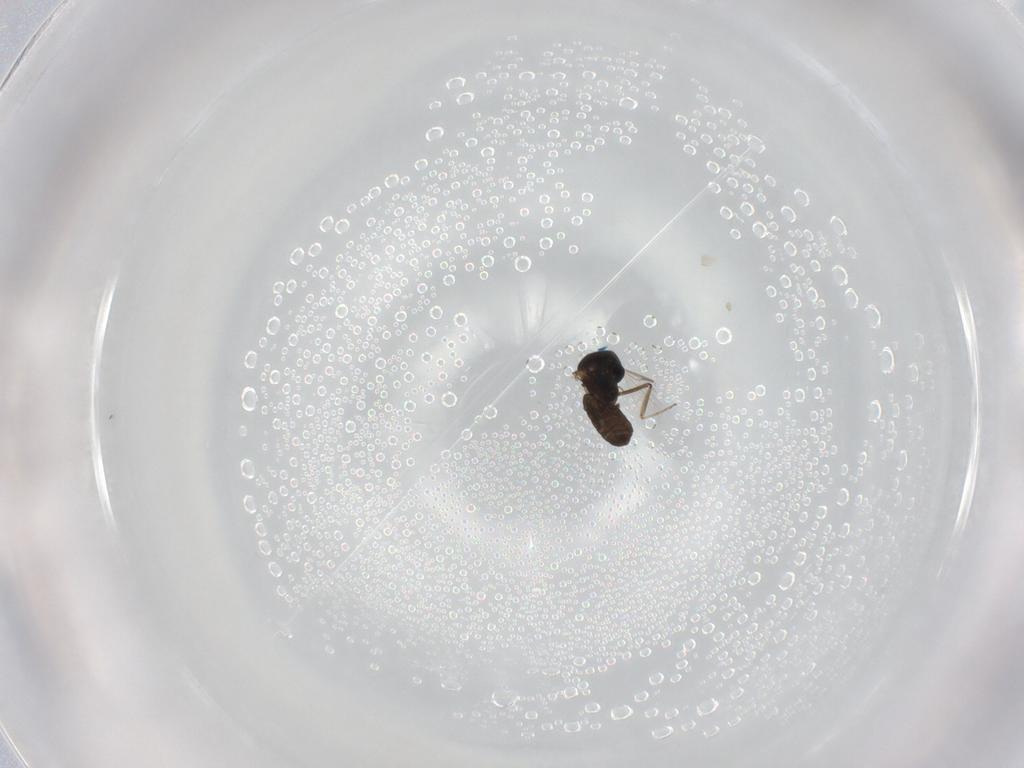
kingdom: Animalia
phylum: Arthropoda
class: Insecta
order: Diptera
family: Ceratopogonidae
